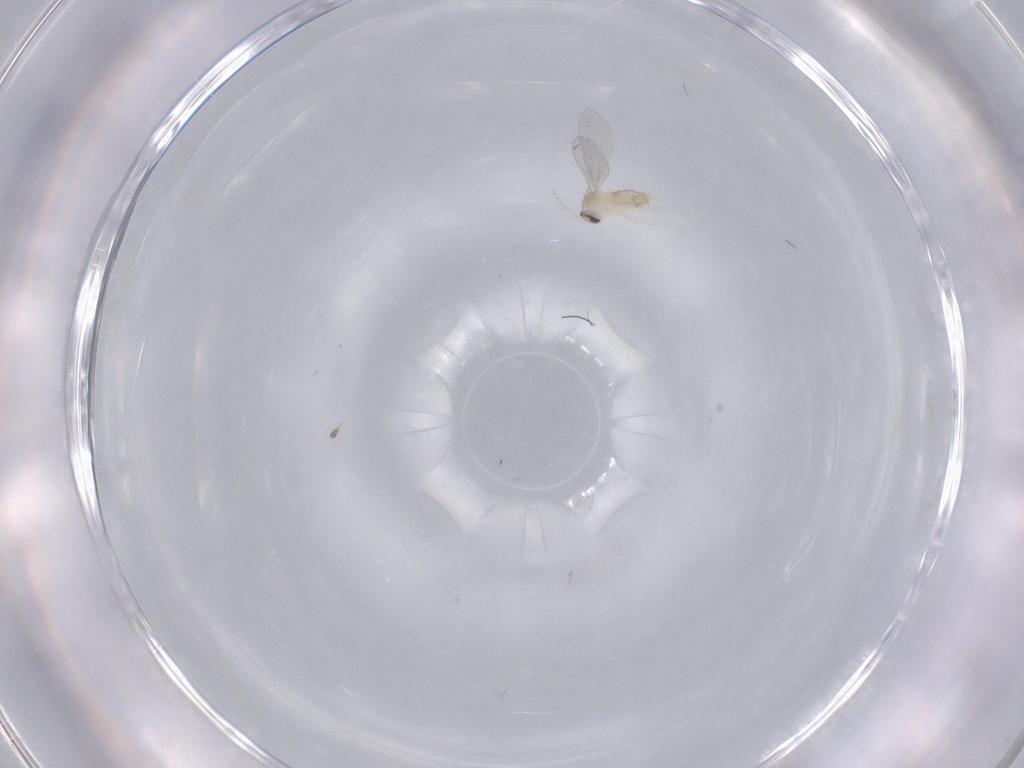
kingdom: Animalia
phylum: Arthropoda
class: Insecta
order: Diptera
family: Cecidomyiidae
